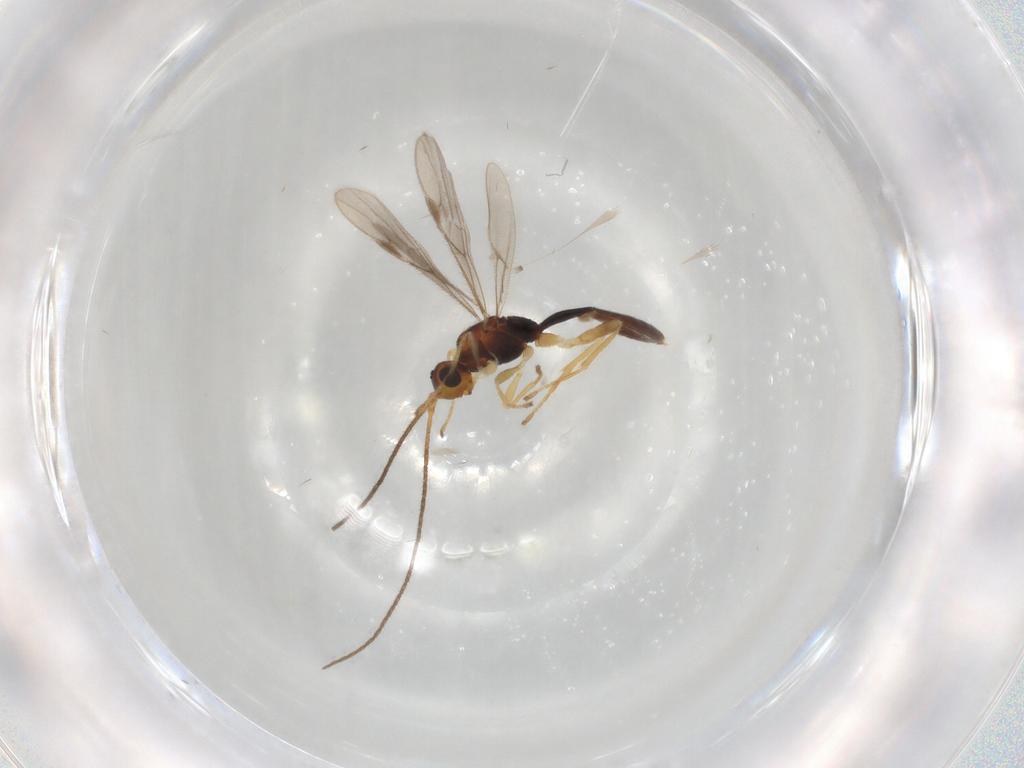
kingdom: Animalia
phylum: Arthropoda
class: Insecta
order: Hymenoptera
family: Braconidae
